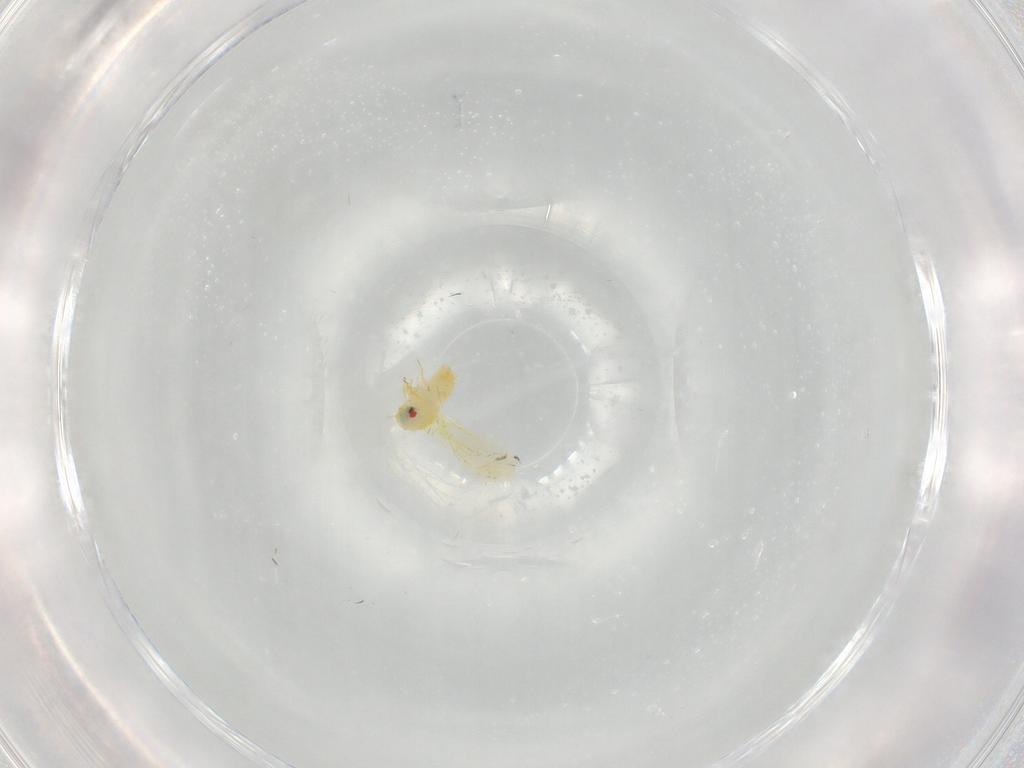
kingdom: Animalia
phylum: Arthropoda
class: Insecta
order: Hemiptera
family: Aleyrodidae
